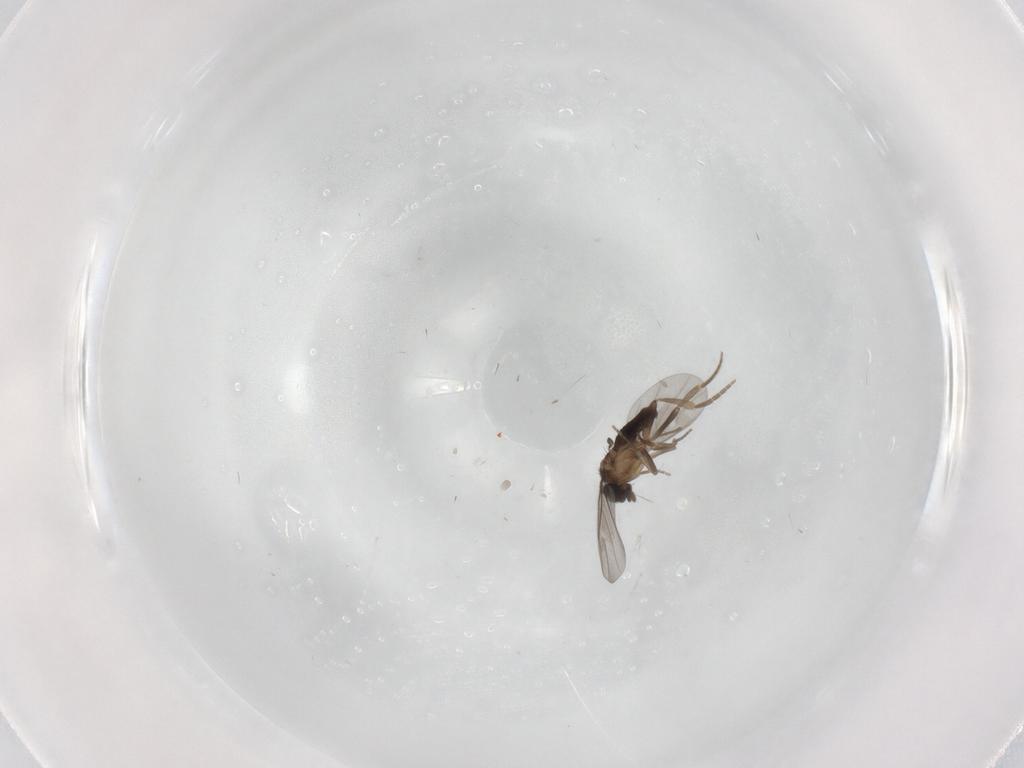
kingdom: Animalia
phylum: Arthropoda
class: Insecta
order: Diptera
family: Cecidomyiidae
